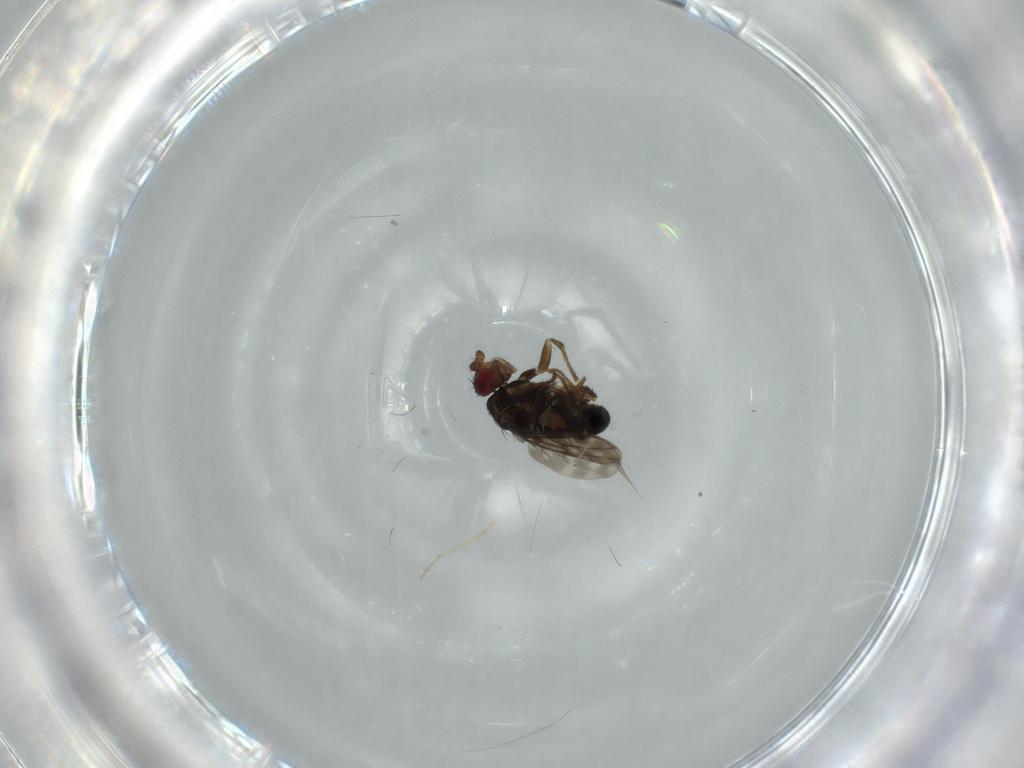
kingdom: Animalia
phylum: Arthropoda
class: Insecta
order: Diptera
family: Sphaeroceridae
